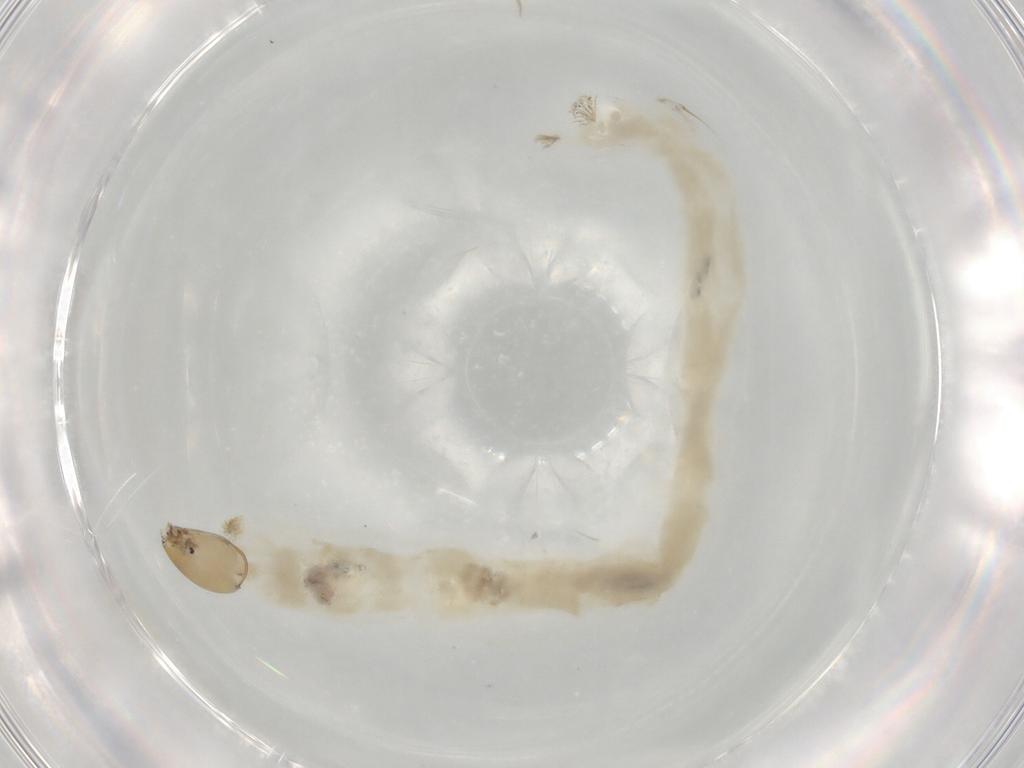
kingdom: Animalia
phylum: Arthropoda
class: Insecta
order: Diptera
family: Chironomidae
